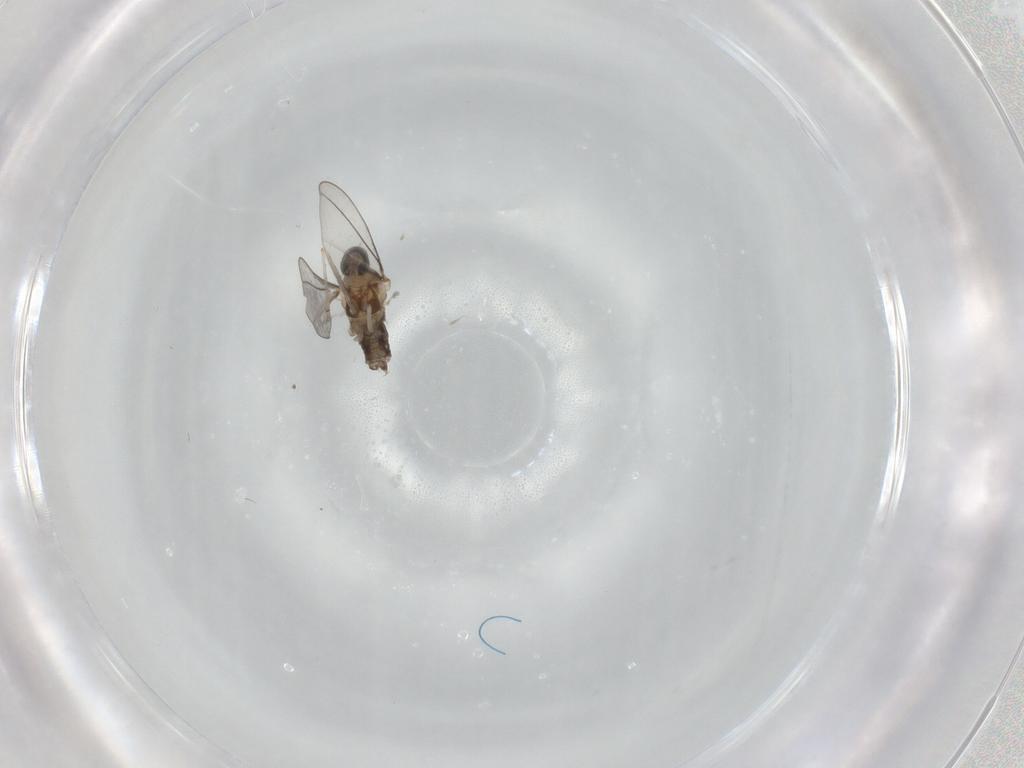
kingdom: Animalia
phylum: Arthropoda
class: Insecta
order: Diptera
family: Cecidomyiidae
